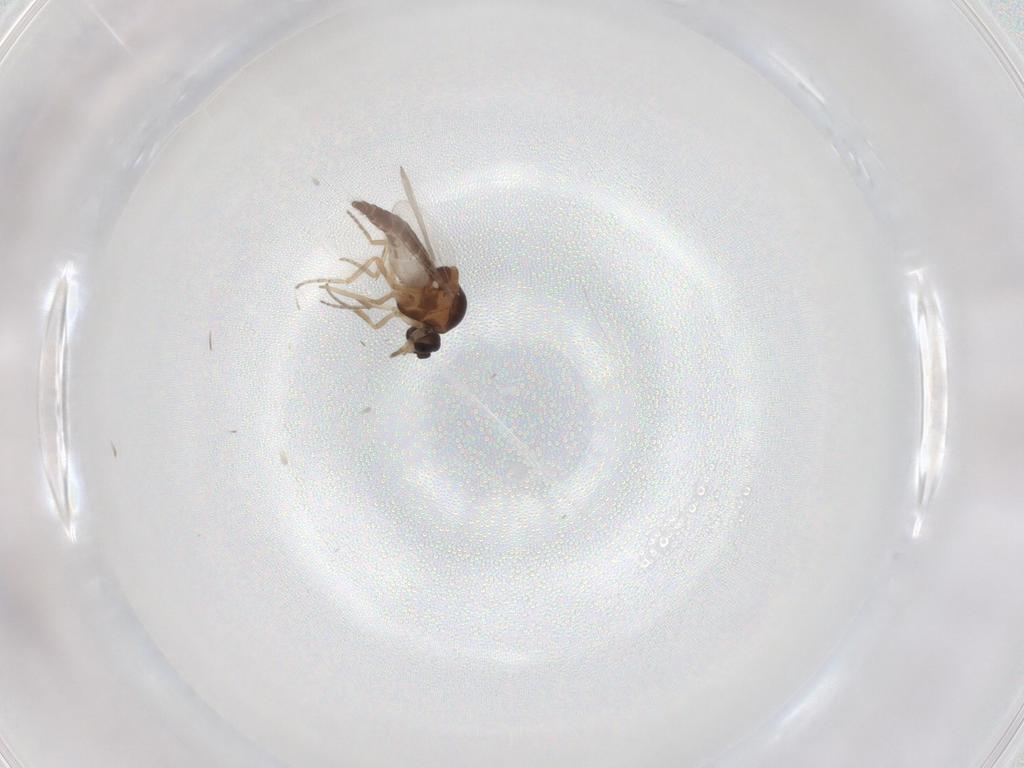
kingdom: Animalia
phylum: Arthropoda
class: Insecta
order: Diptera
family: Ceratopogonidae
